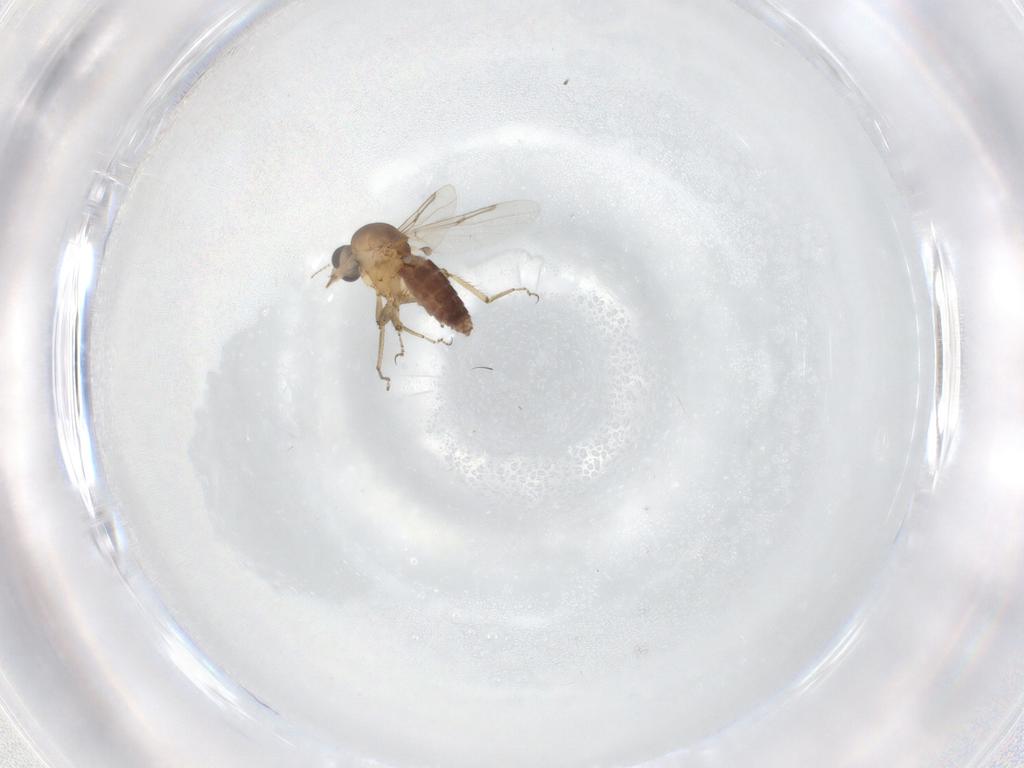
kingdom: Animalia
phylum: Arthropoda
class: Insecta
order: Diptera
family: Ceratopogonidae
